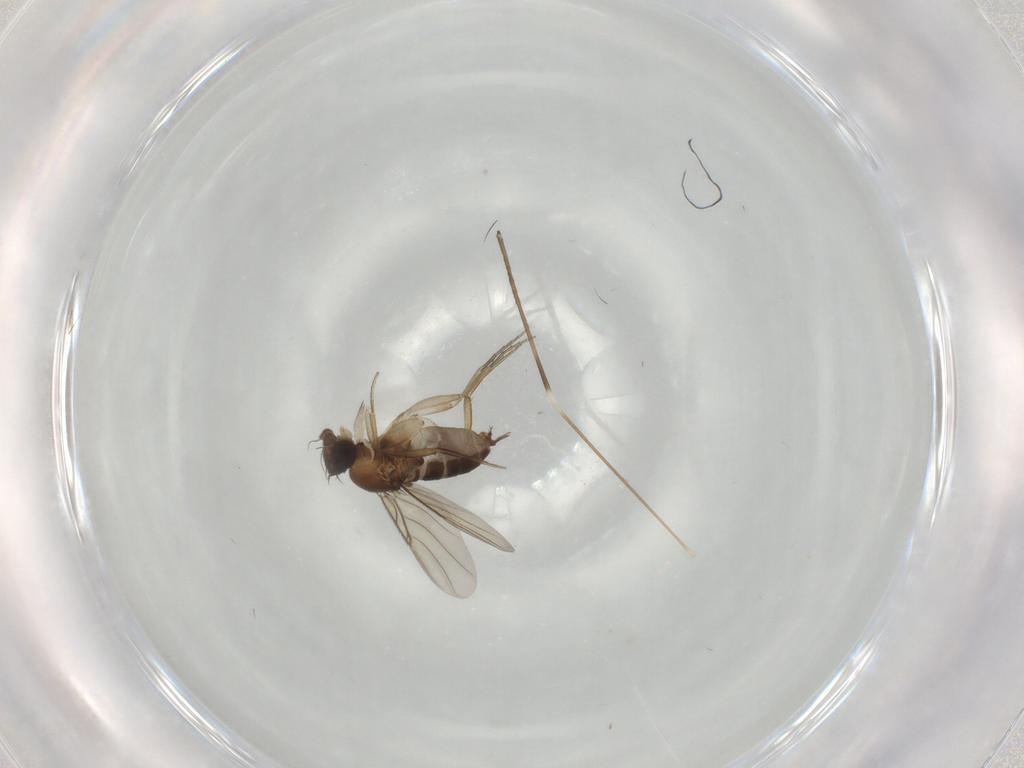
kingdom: Animalia
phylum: Arthropoda
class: Insecta
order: Diptera
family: Phoridae
